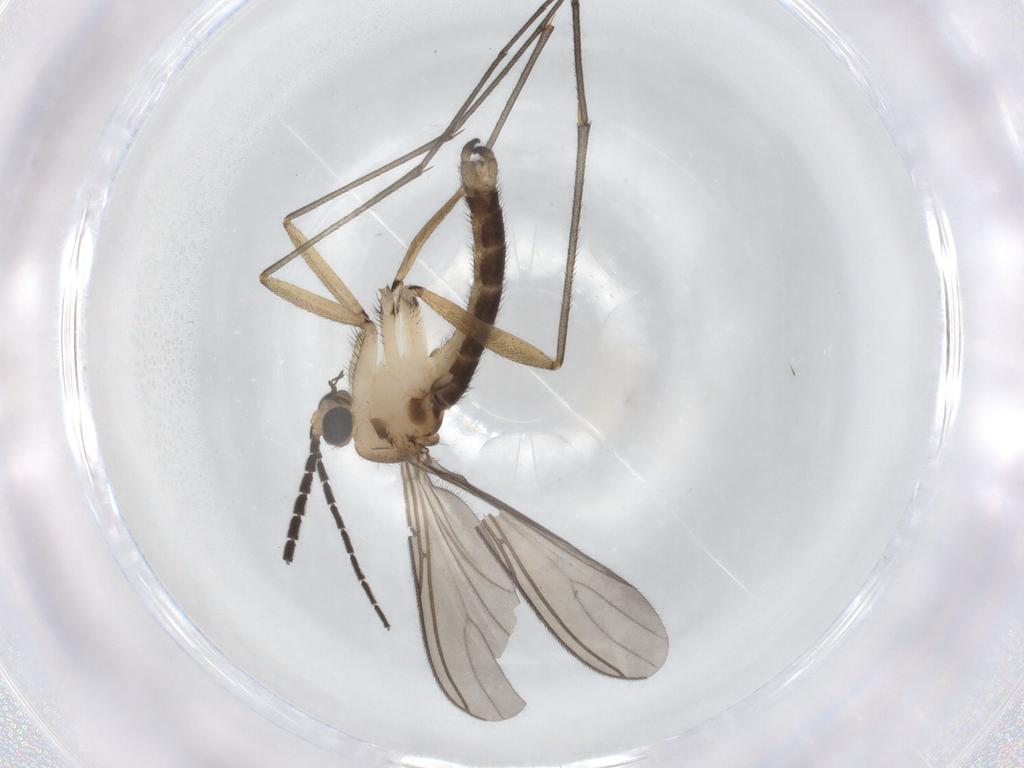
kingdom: Animalia
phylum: Arthropoda
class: Insecta
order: Diptera
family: Sciaridae
